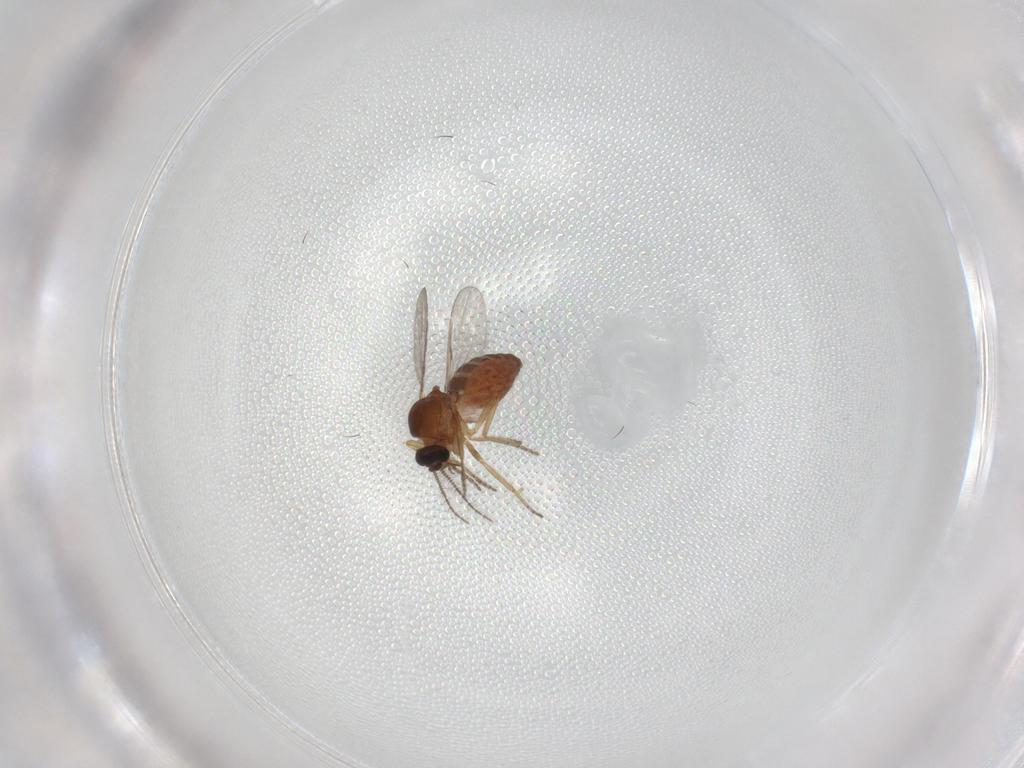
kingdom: Animalia
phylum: Arthropoda
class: Insecta
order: Diptera
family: Ceratopogonidae
